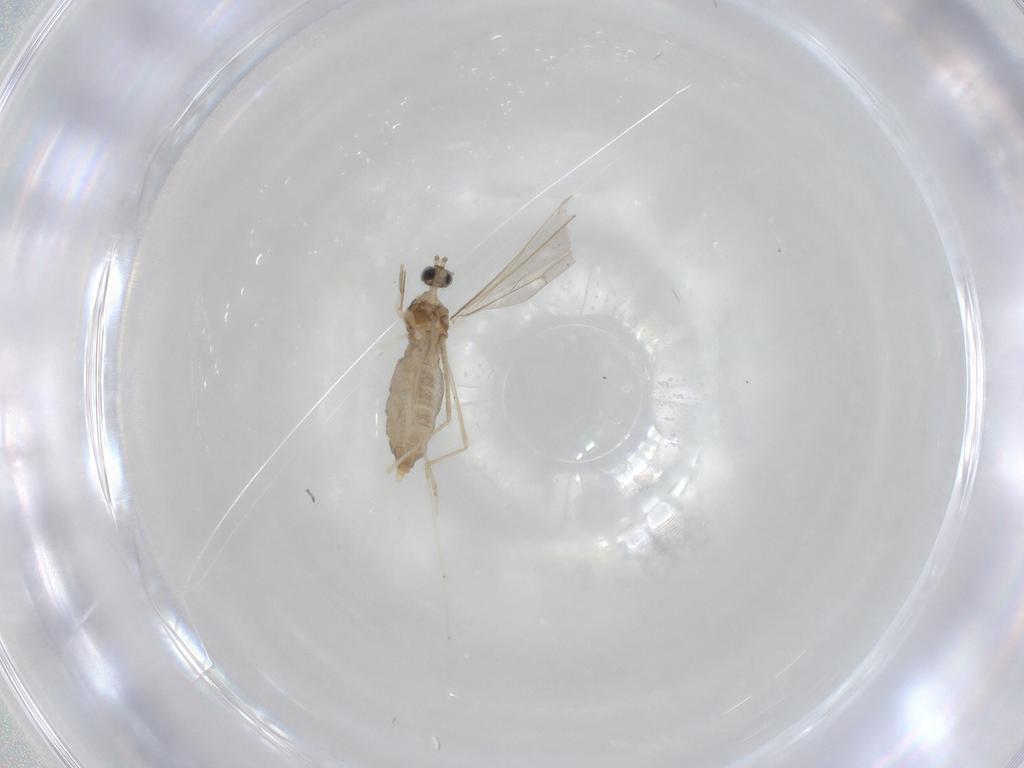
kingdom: Animalia
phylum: Arthropoda
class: Insecta
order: Diptera
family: Cecidomyiidae
